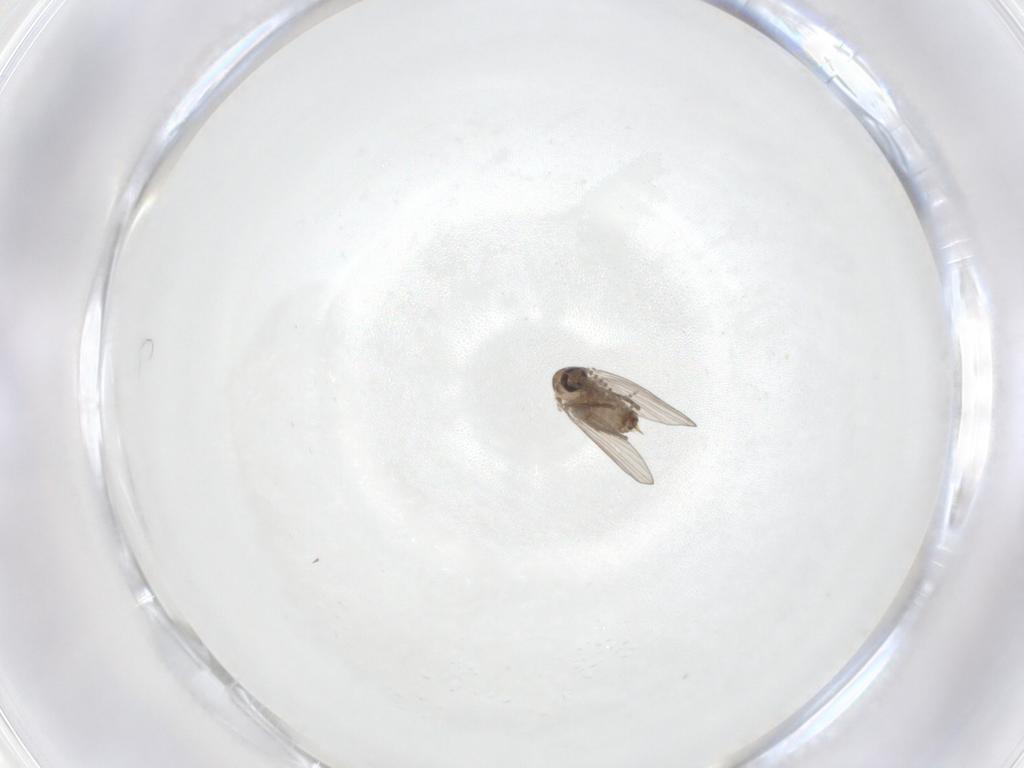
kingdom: Animalia
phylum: Arthropoda
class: Insecta
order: Diptera
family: Psychodidae
